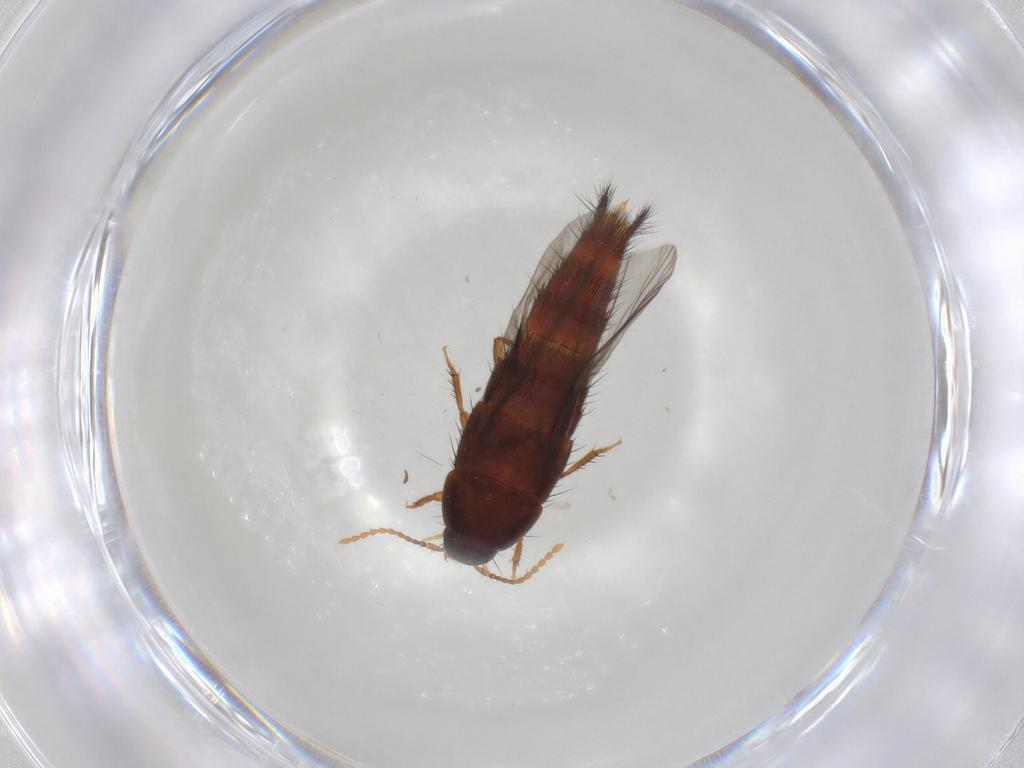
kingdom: Animalia
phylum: Arthropoda
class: Insecta
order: Coleoptera
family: Staphylinidae
